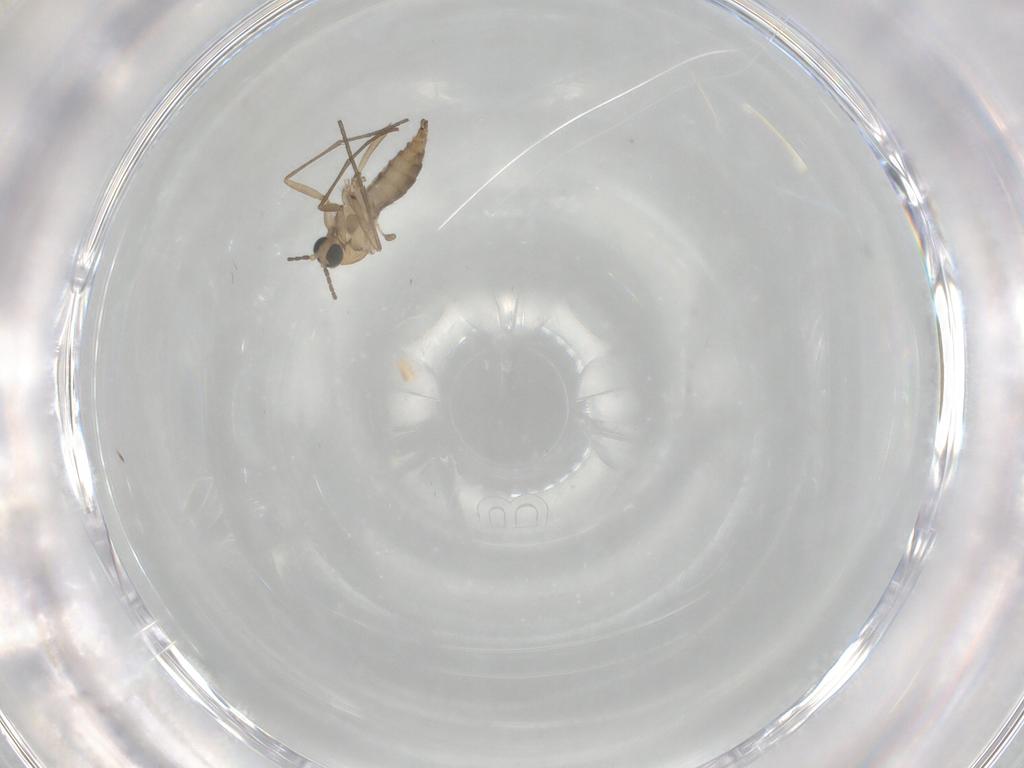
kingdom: Animalia
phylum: Arthropoda
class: Insecta
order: Diptera
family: Sciaridae
